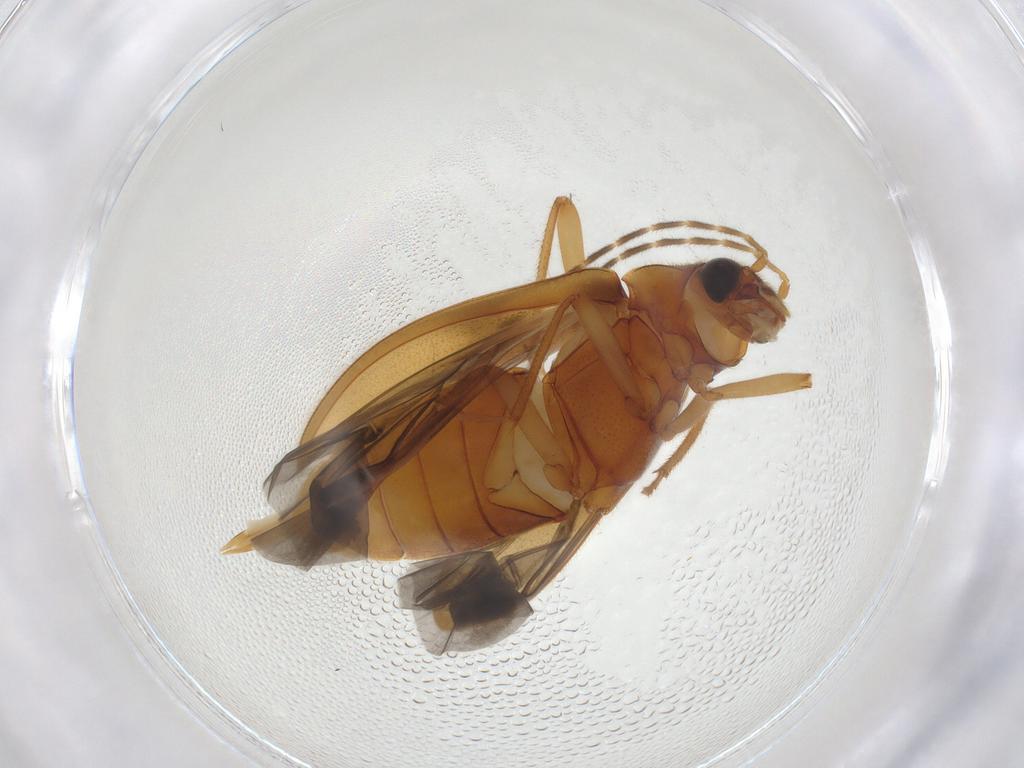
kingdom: Animalia
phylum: Arthropoda
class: Insecta
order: Coleoptera
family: Ptilodactylidae
